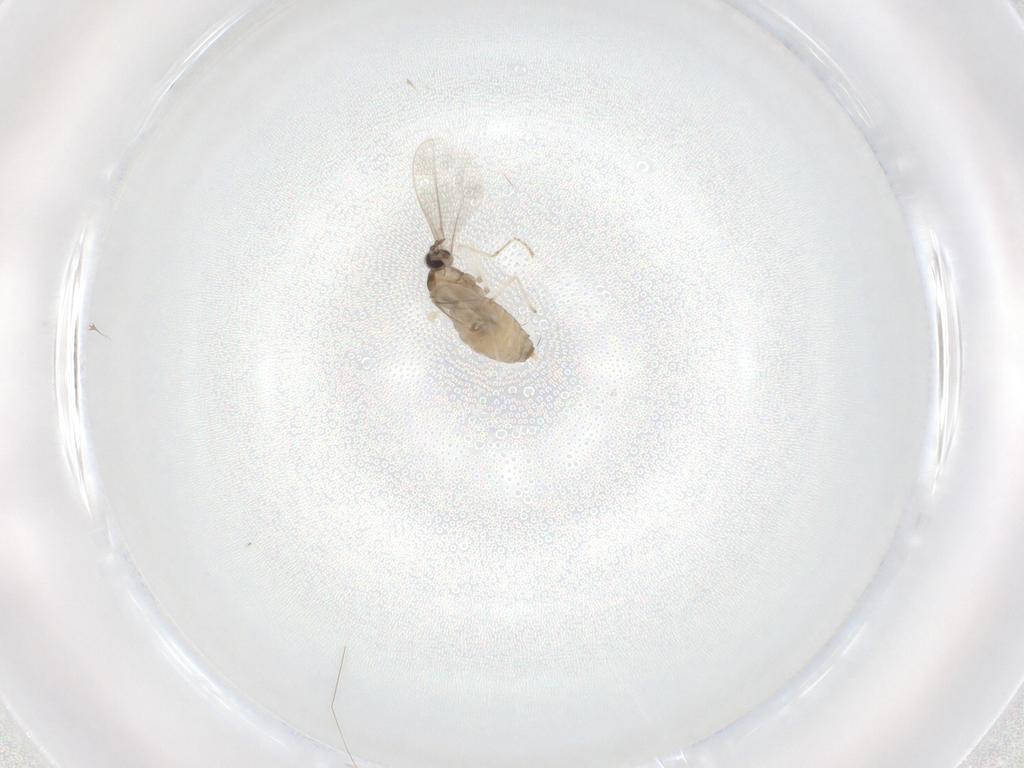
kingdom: Animalia
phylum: Arthropoda
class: Insecta
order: Diptera
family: Cecidomyiidae
